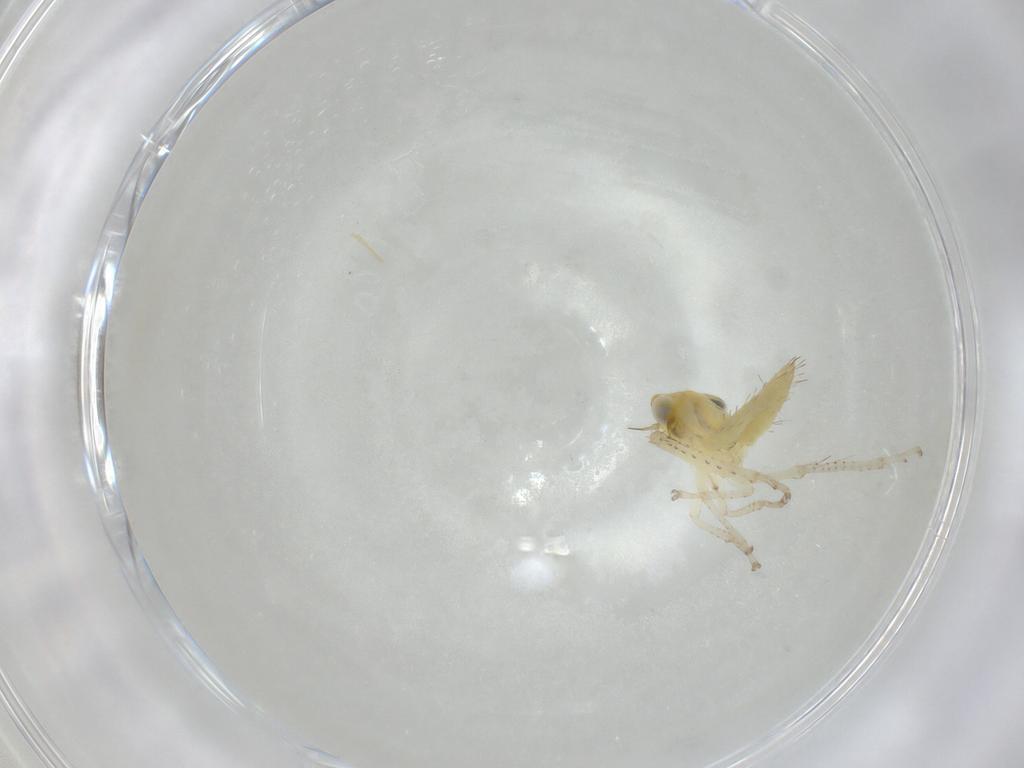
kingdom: Animalia
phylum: Arthropoda
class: Insecta
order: Hemiptera
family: Cicadellidae
